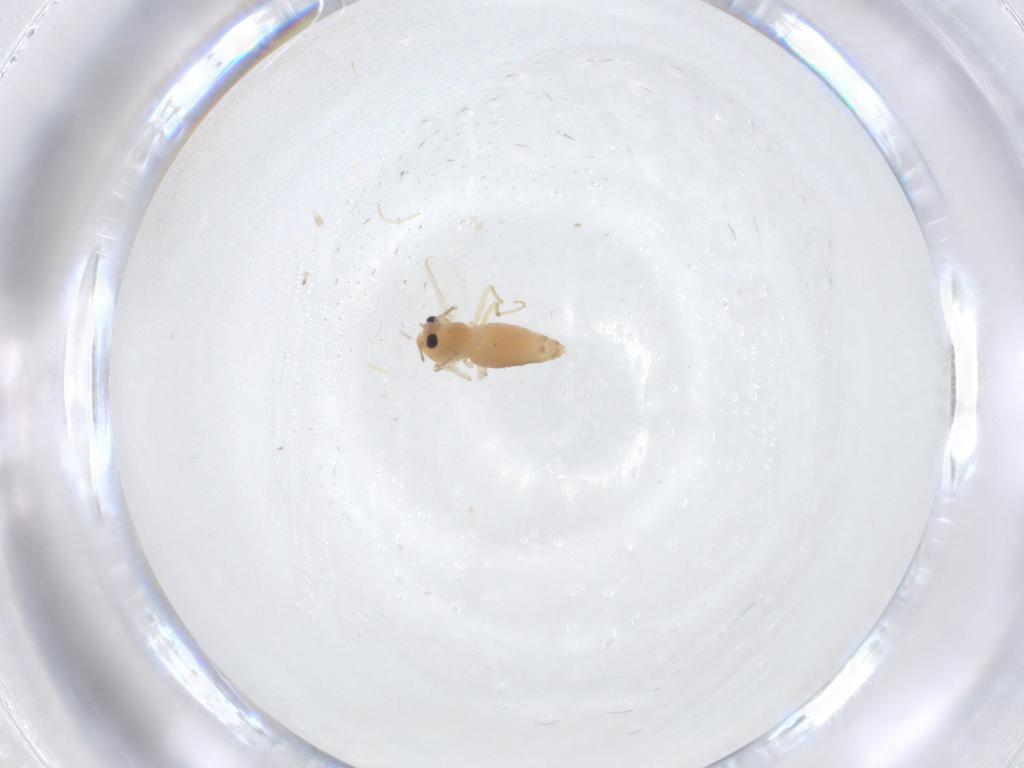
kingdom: Animalia
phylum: Arthropoda
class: Insecta
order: Diptera
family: Chironomidae
